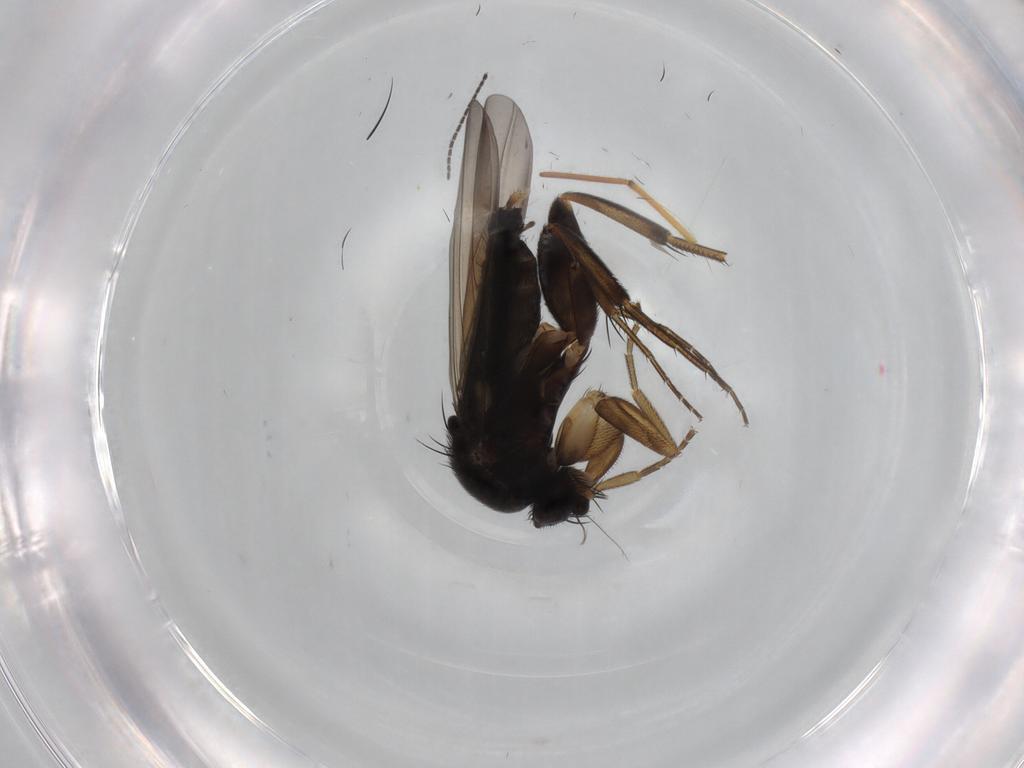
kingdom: Animalia
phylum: Arthropoda
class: Insecta
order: Diptera
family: Phoridae
